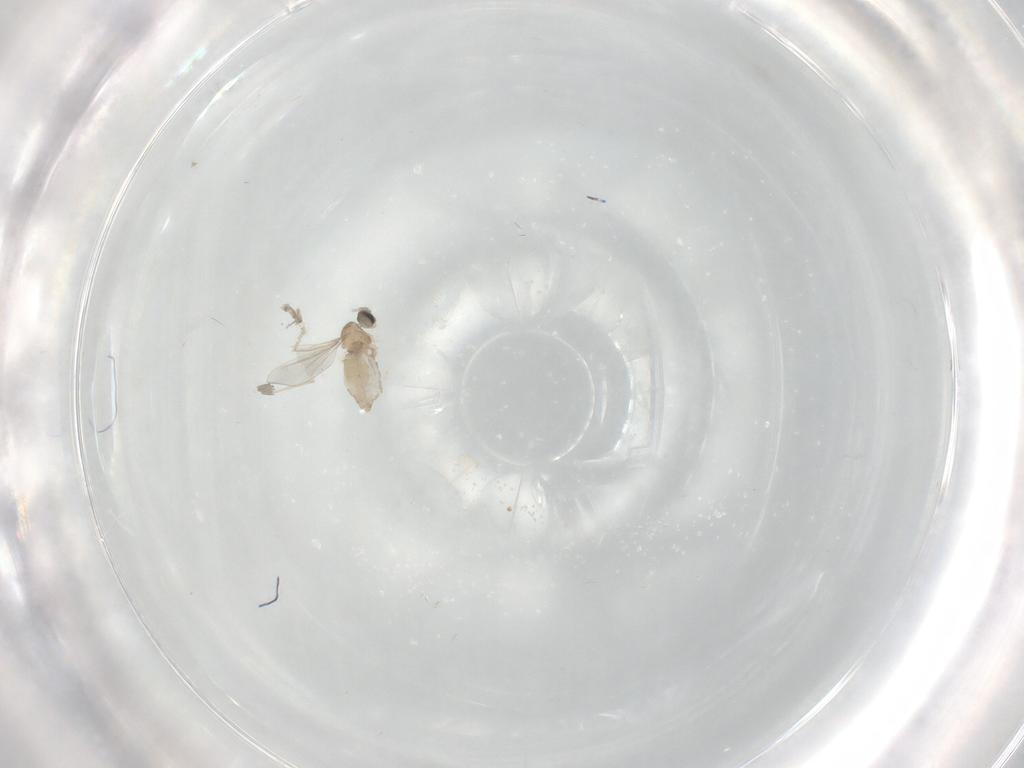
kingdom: Animalia
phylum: Arthropoda
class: Insecta
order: Diptera
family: Cecidomyiidae
